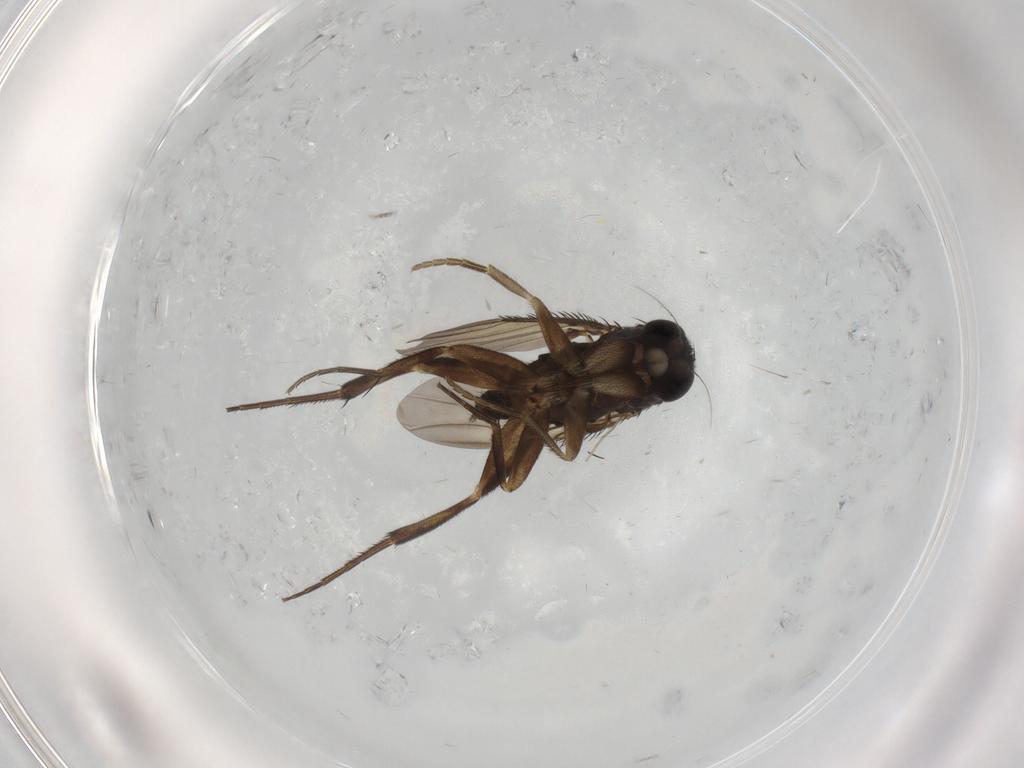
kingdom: Animalia
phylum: Arthropoda
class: Insecta
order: Diptera
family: Phoridae
